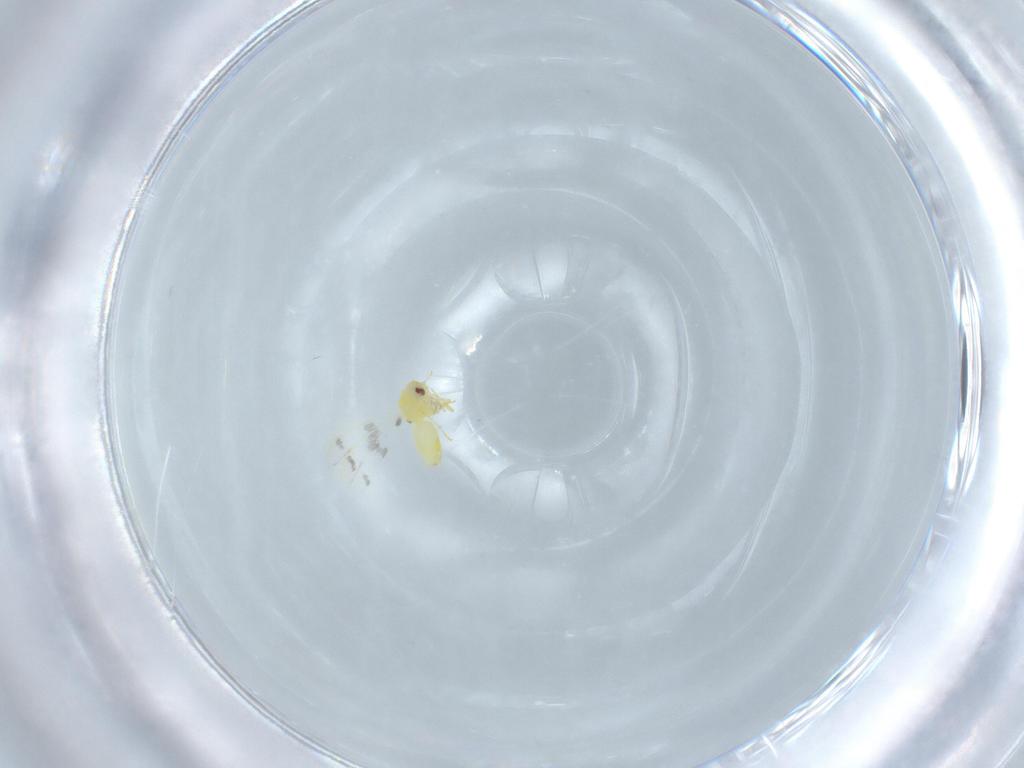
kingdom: Animalia
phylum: Arthropoda
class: Insecta
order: Hemiptera
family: Aleyrodidae
